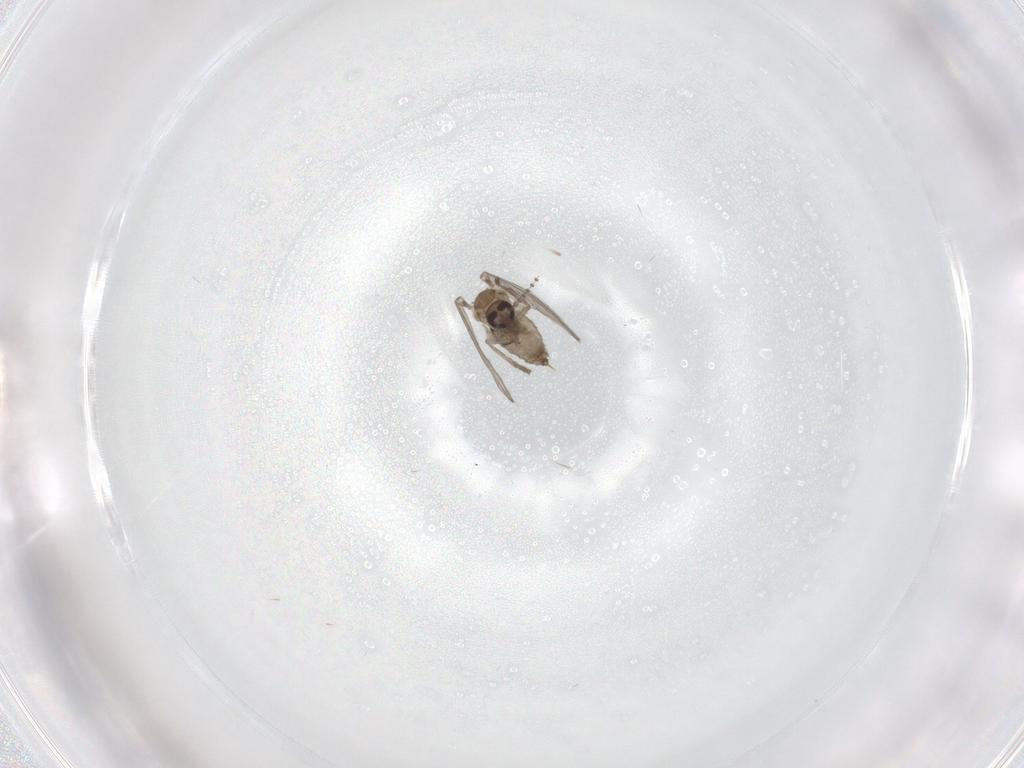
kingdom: Animalia
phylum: Arthropoda
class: Insecta
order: Diptera
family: Psychodidae
